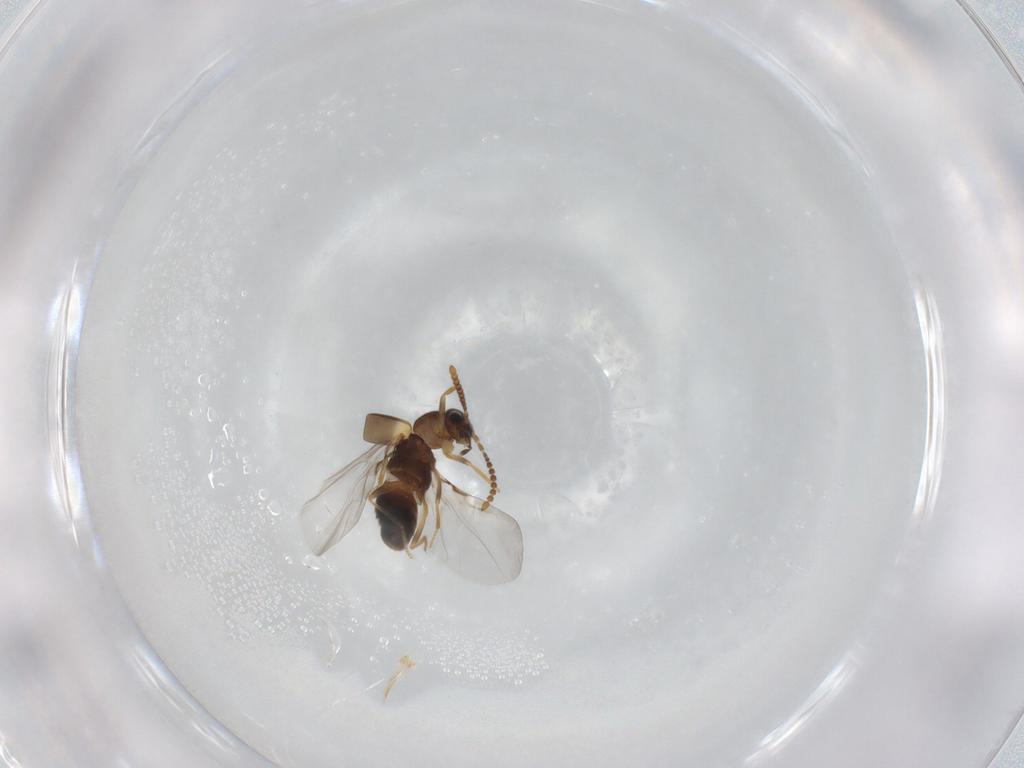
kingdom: Animalia
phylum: Arthropoda
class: Insecta
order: Coleoptera
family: Staphylinidae
